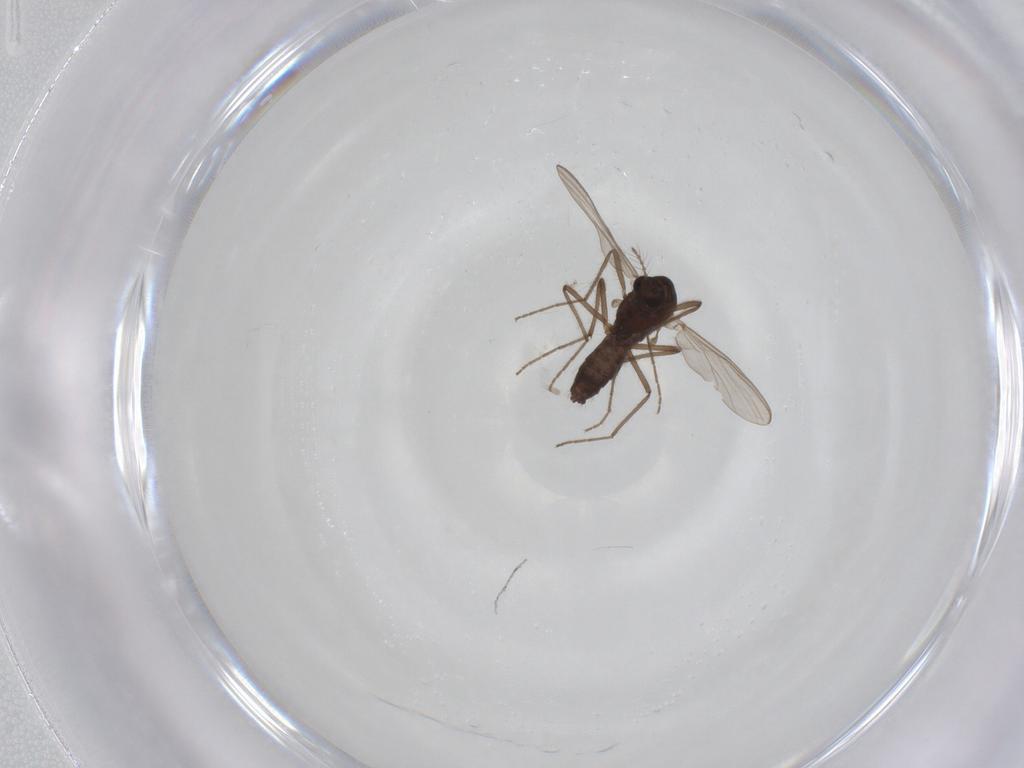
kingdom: Animalia
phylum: Arthropoda
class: Insecta
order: Diptera
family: Chironomidae
